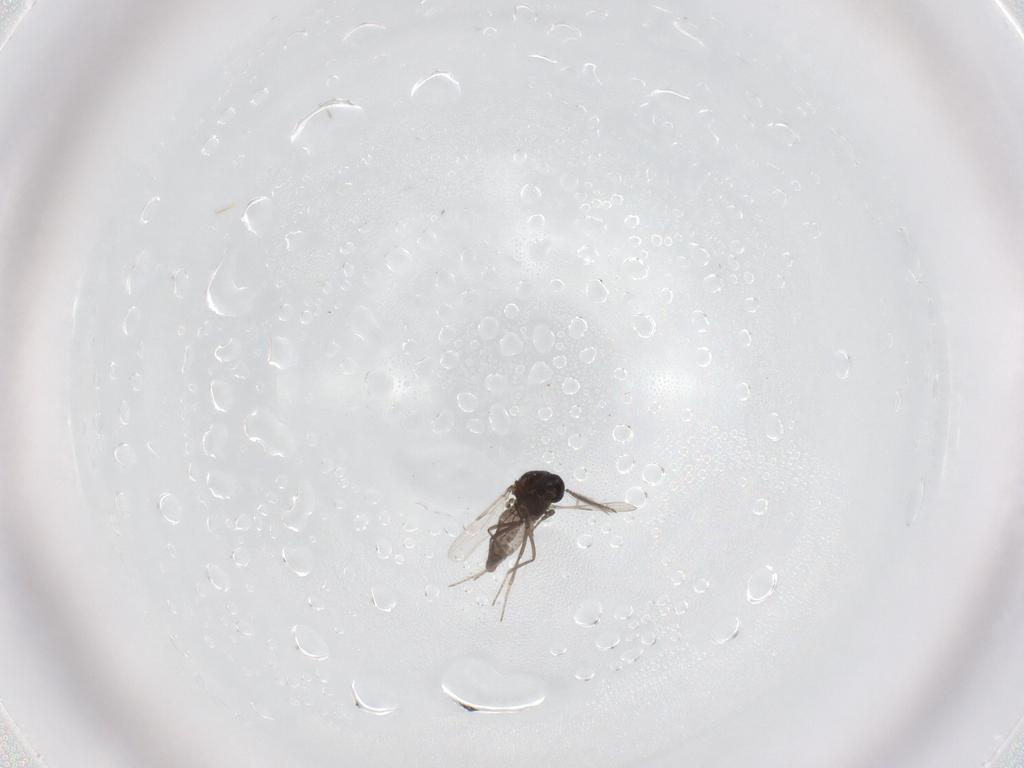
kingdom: Animalia
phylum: Arthropoda
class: Insecta
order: Diptera
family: Ceratopogonidae
